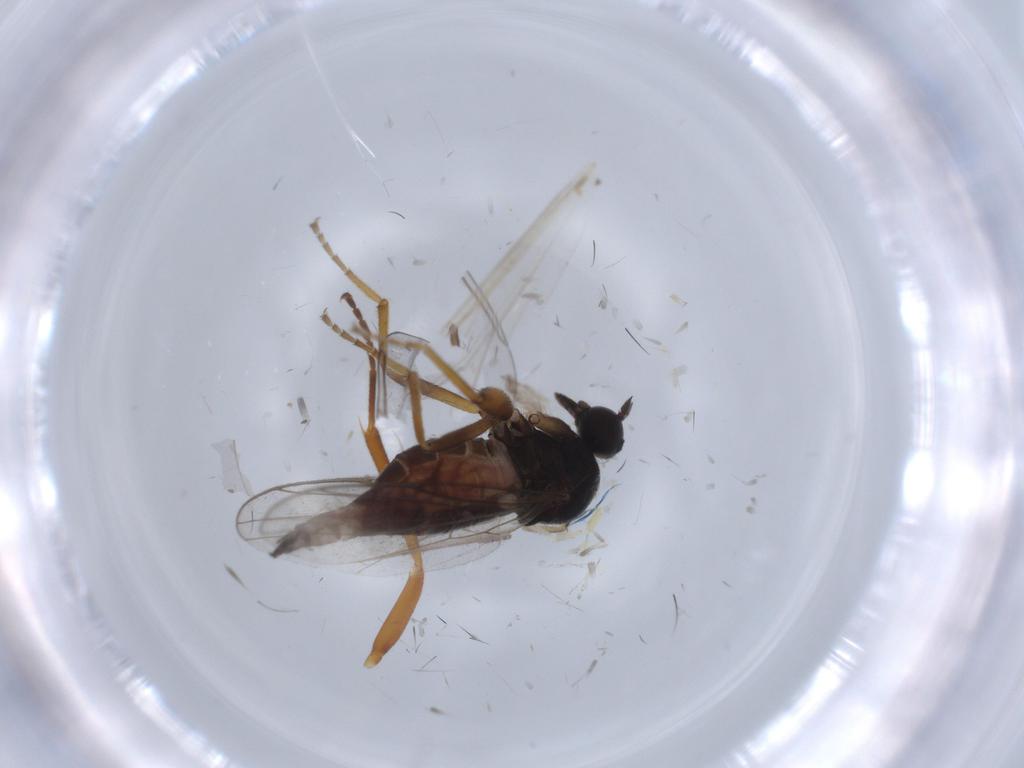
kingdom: Animalia
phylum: Arthropoda
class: Insecta
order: Diptera
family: Hybotidae
